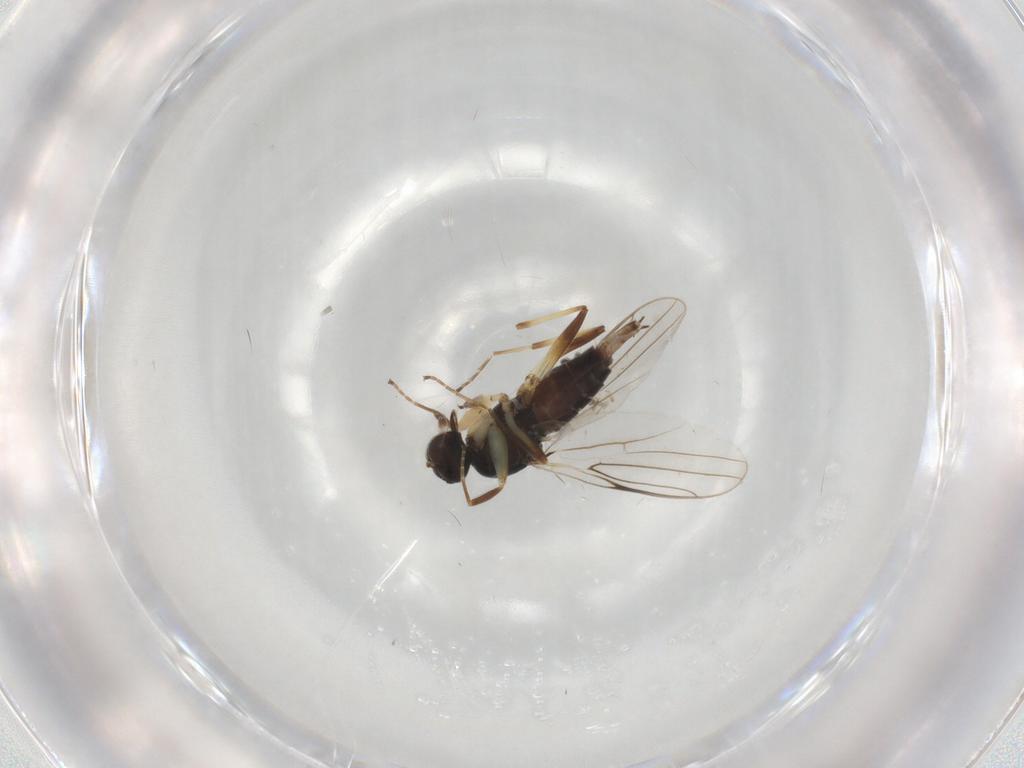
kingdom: Animalia
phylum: Arthropoda
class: Insecta
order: Diptera
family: Hybotidae
